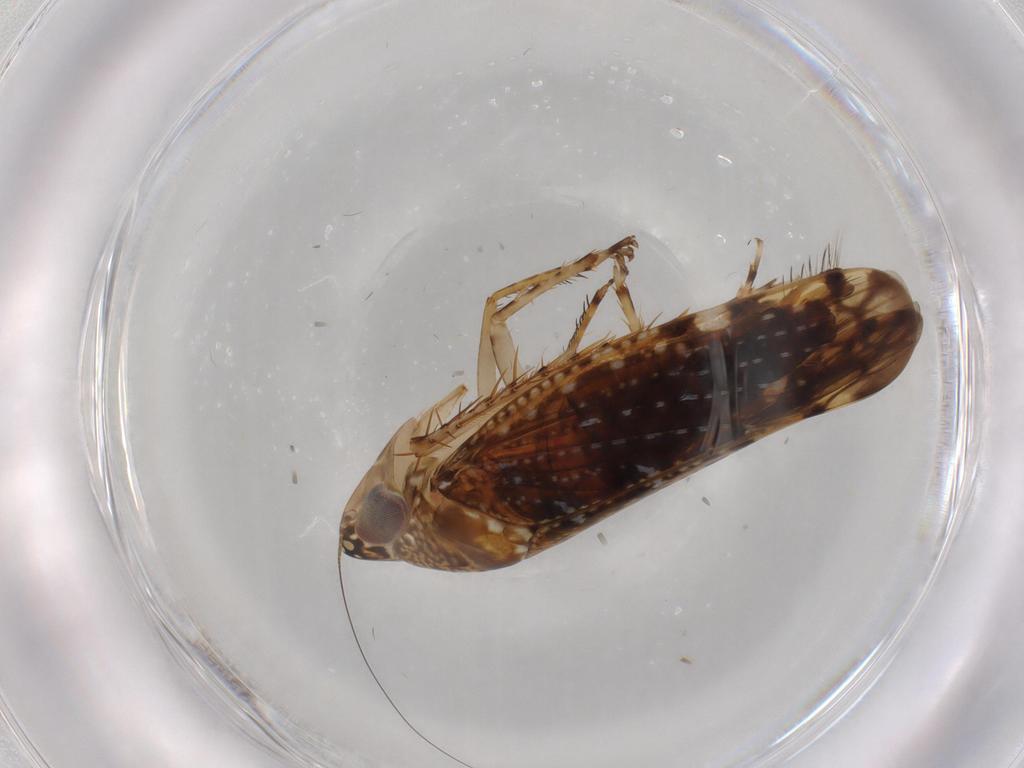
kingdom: Animalia
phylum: Arthropoda
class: Insecta
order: Hemiptera
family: Cicadellidae
